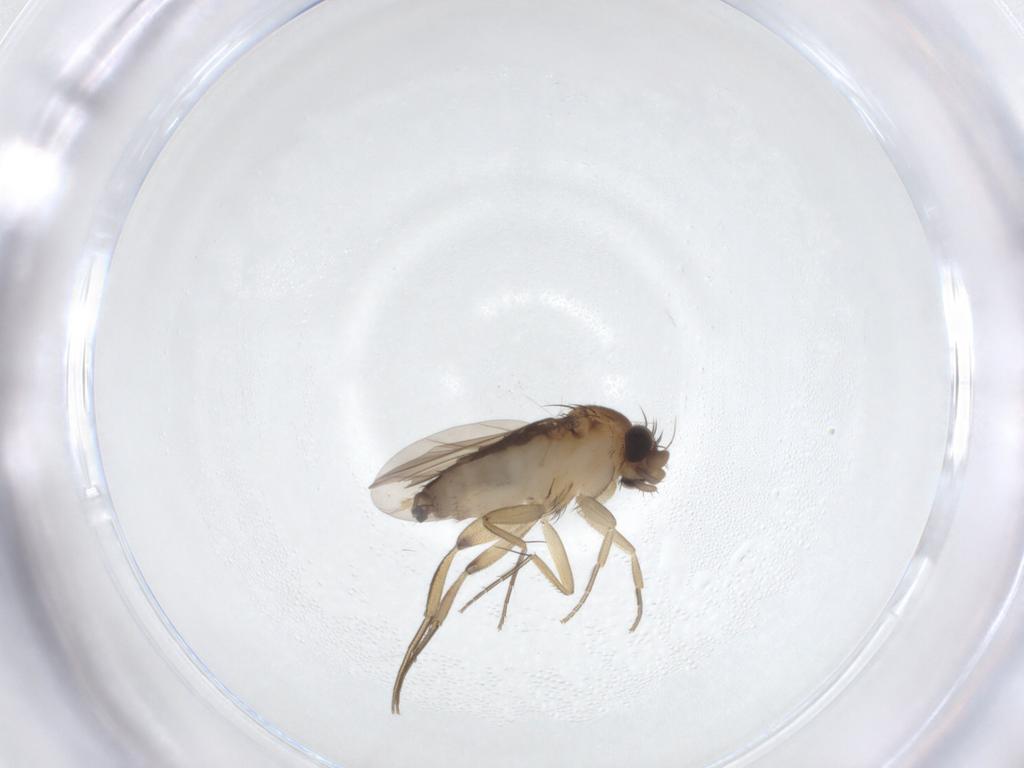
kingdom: Animalia
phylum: Arthropoda
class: Insecta
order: Diptera
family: Phoridae
